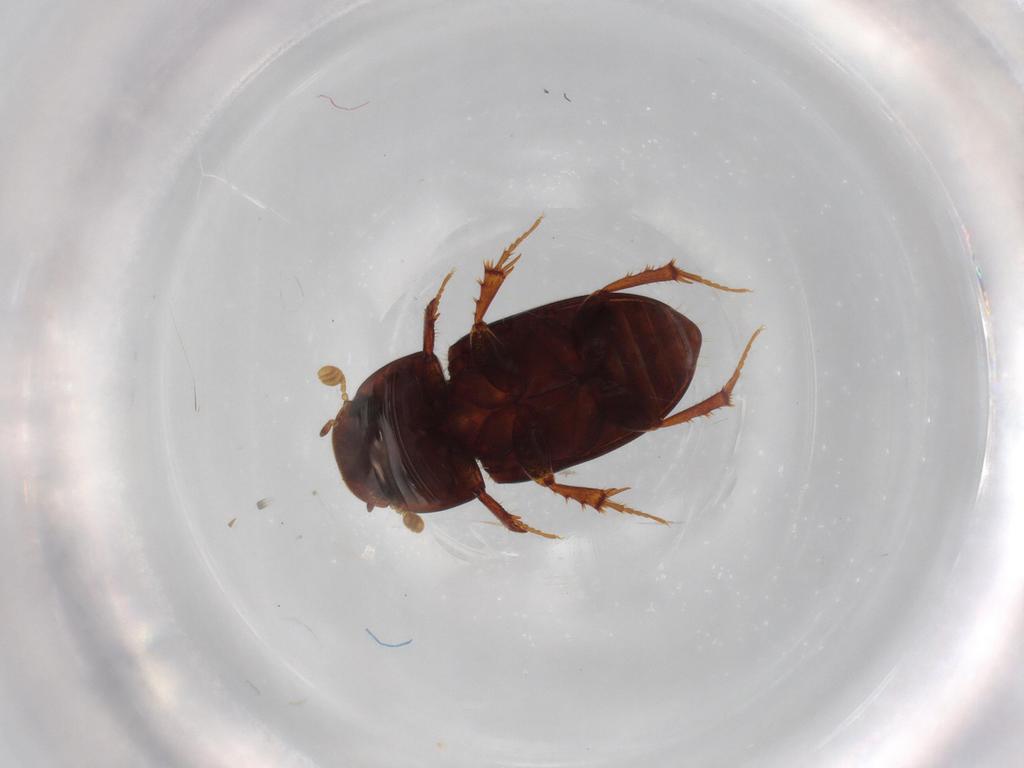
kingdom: Animalia
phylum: Arthropoda
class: Insecta
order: Coleoptera
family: Scarabaeidae
